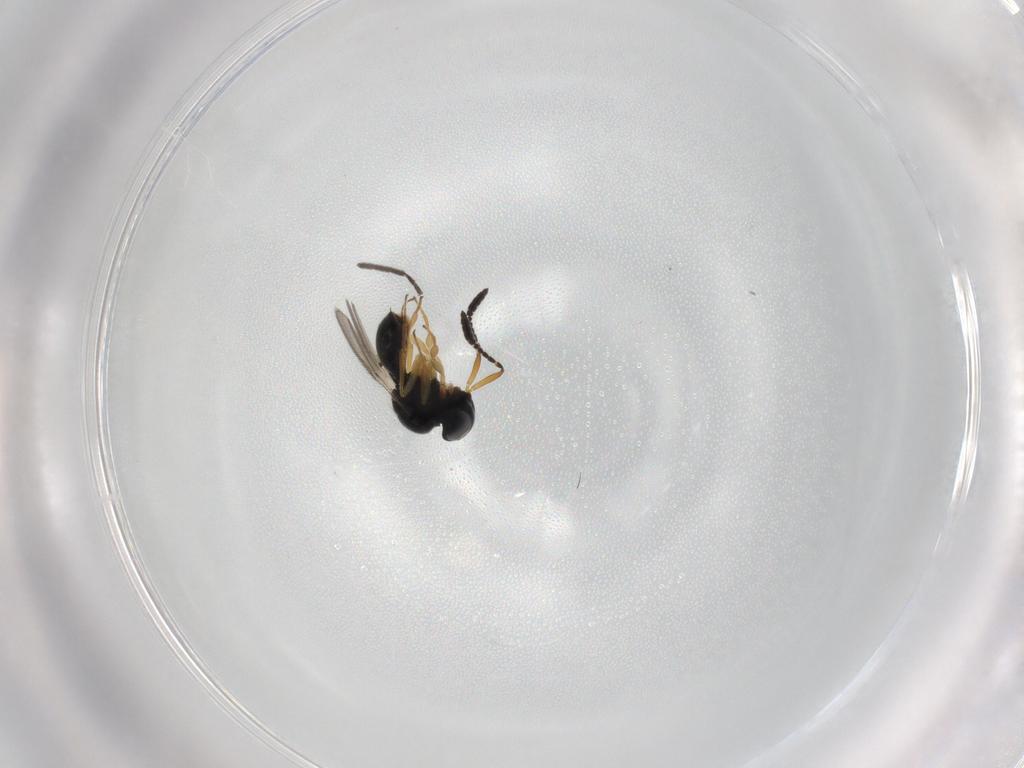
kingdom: Animalia
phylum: Arthropoda
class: Insecta
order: Hymenoptera
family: Scelionidae
